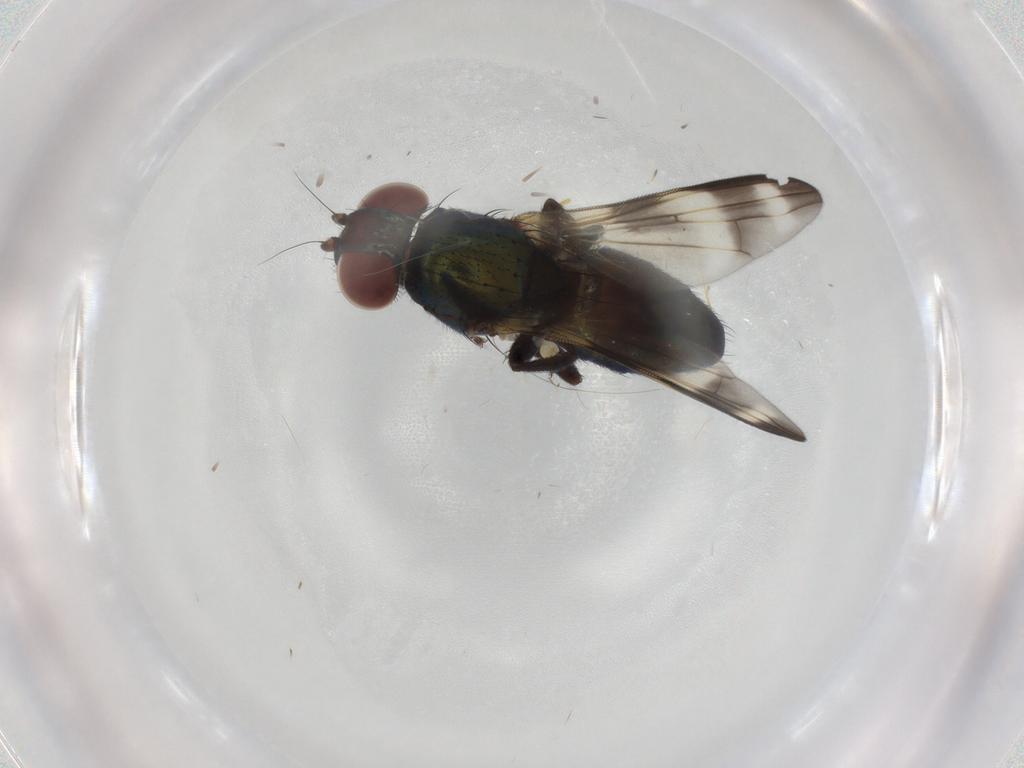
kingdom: Animalia
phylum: Arthropoda
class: Insecta
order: Diptera
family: Ulidiidae
